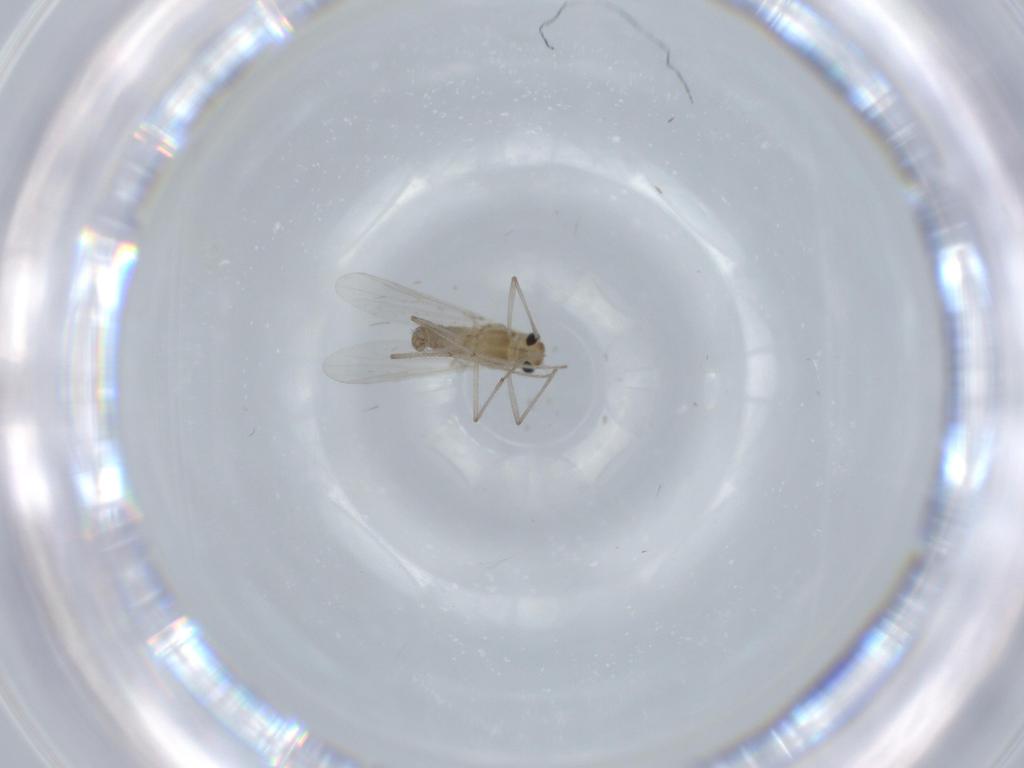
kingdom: Animalia
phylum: Arthropoda
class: Insecta
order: Diptera
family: Chironomidae
